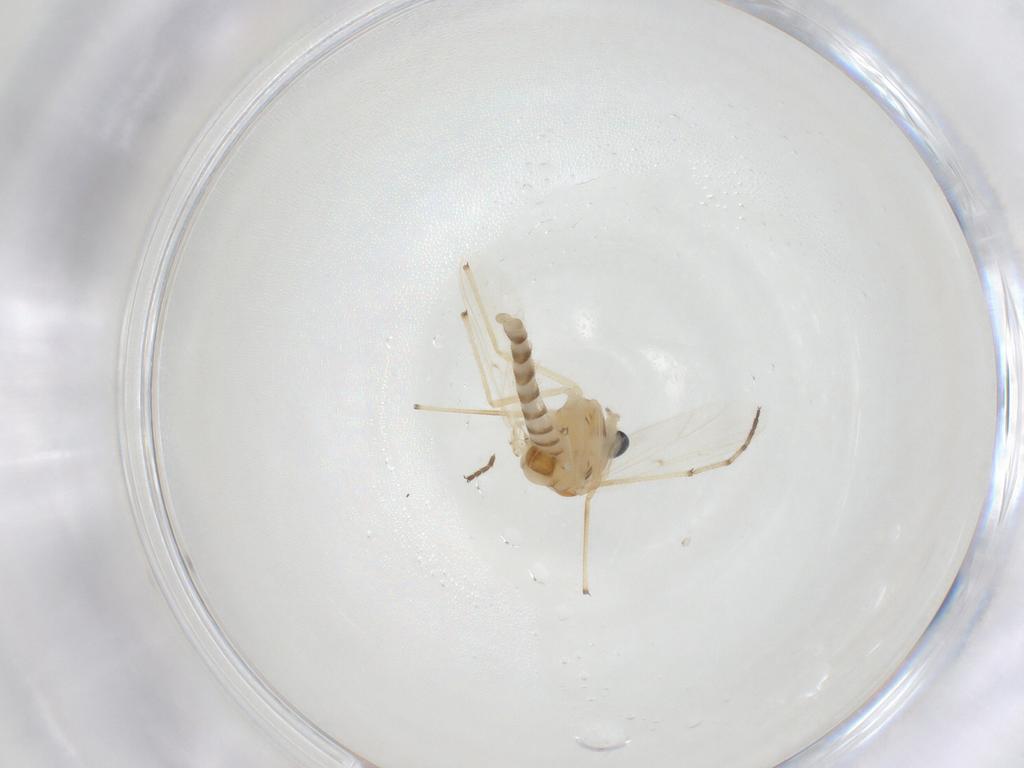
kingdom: Animalia
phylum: Arthropoda
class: Insecta
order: Diptera
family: Chironomidae
